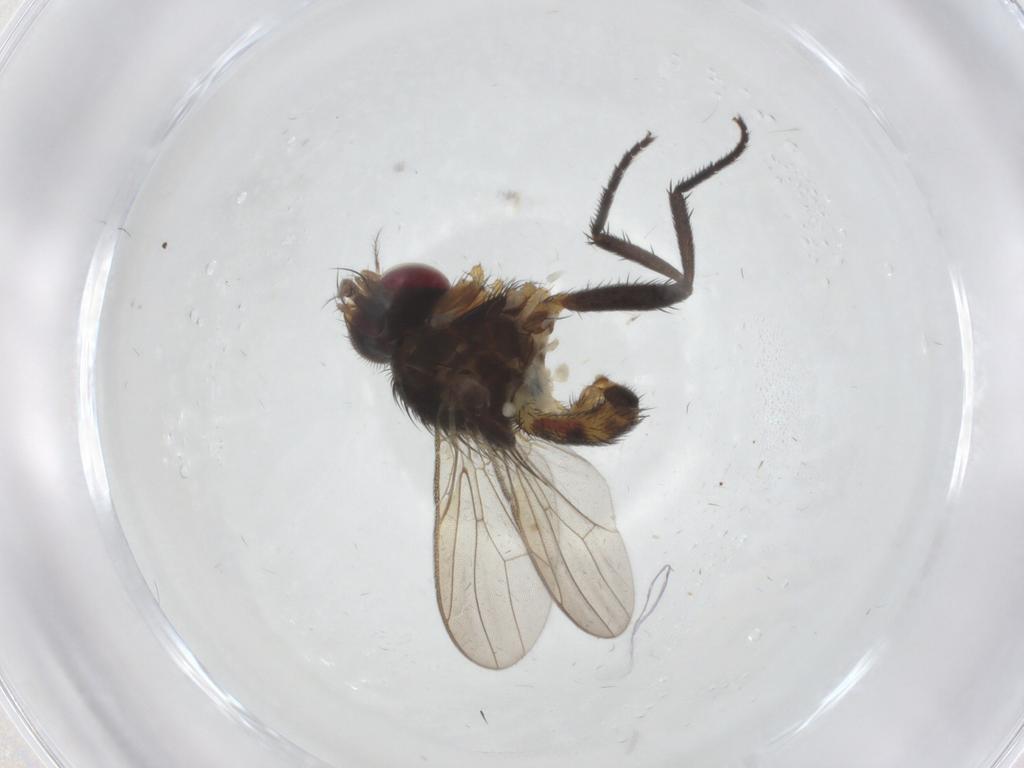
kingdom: Animalia
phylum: Arthropoda
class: Insecta
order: Diptera
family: Anthomyiidae
